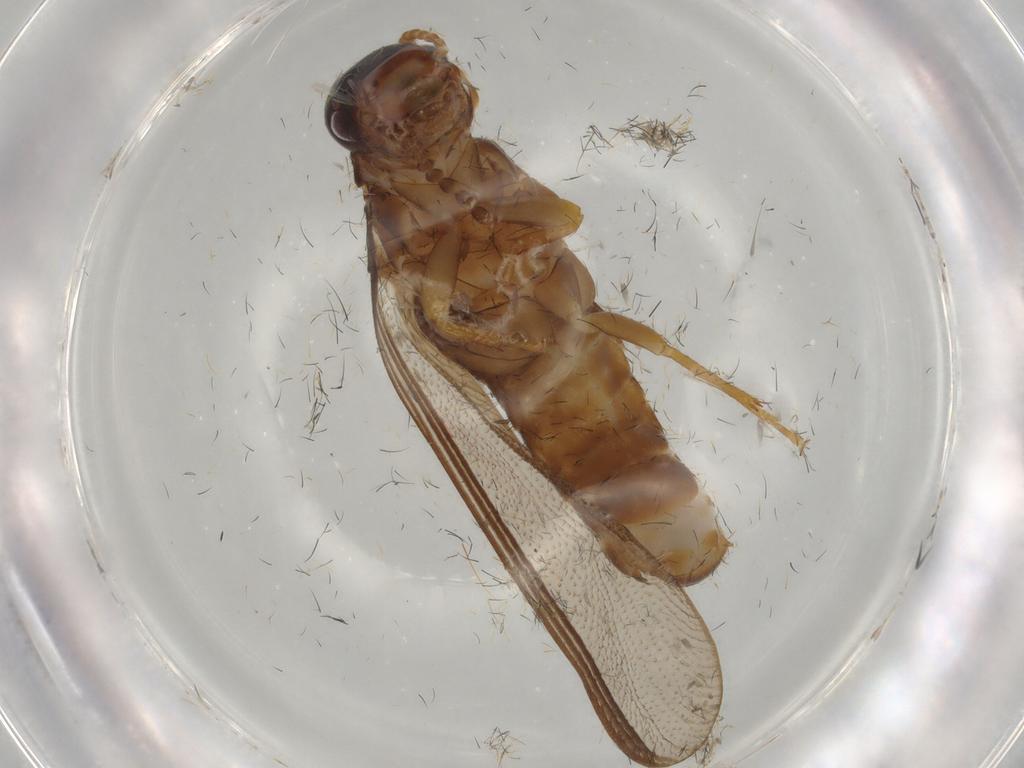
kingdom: Animalia
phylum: Arthropoda
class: Insecta
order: Blattodea
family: Kalotermitidae
